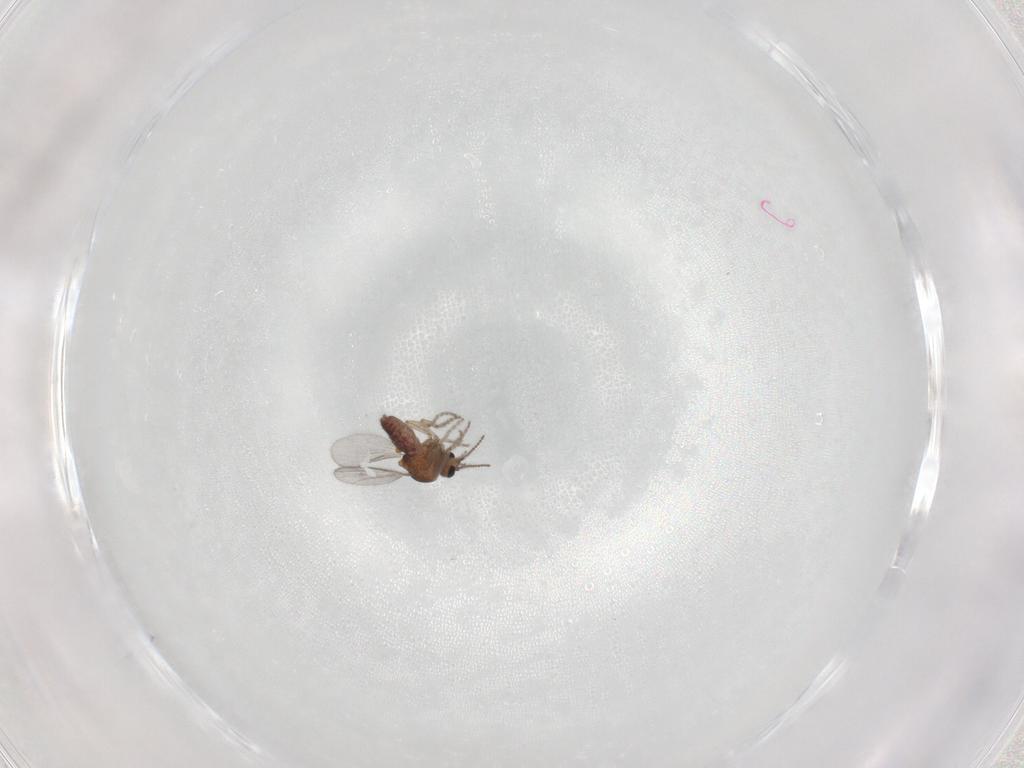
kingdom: Animalia
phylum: Arthropoda
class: Insecta
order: Diptera
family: Ceratopogonidae
